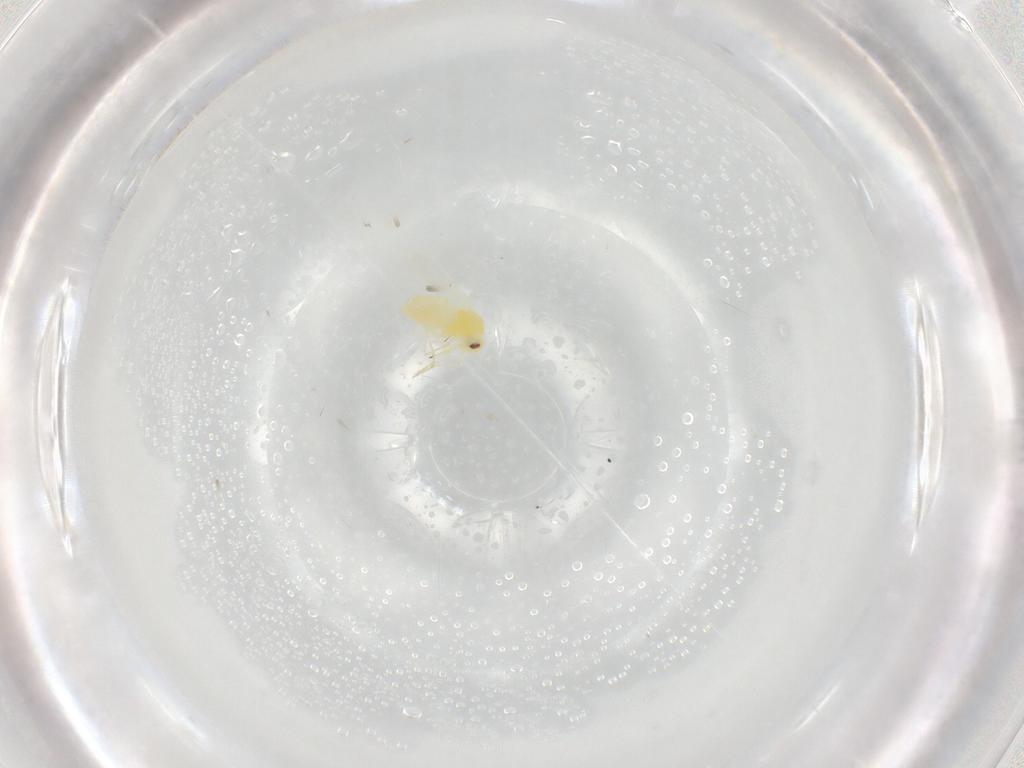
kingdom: Animalia
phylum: Arthropoda
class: Insecta
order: Hemiptera
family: Aleyrodidae
